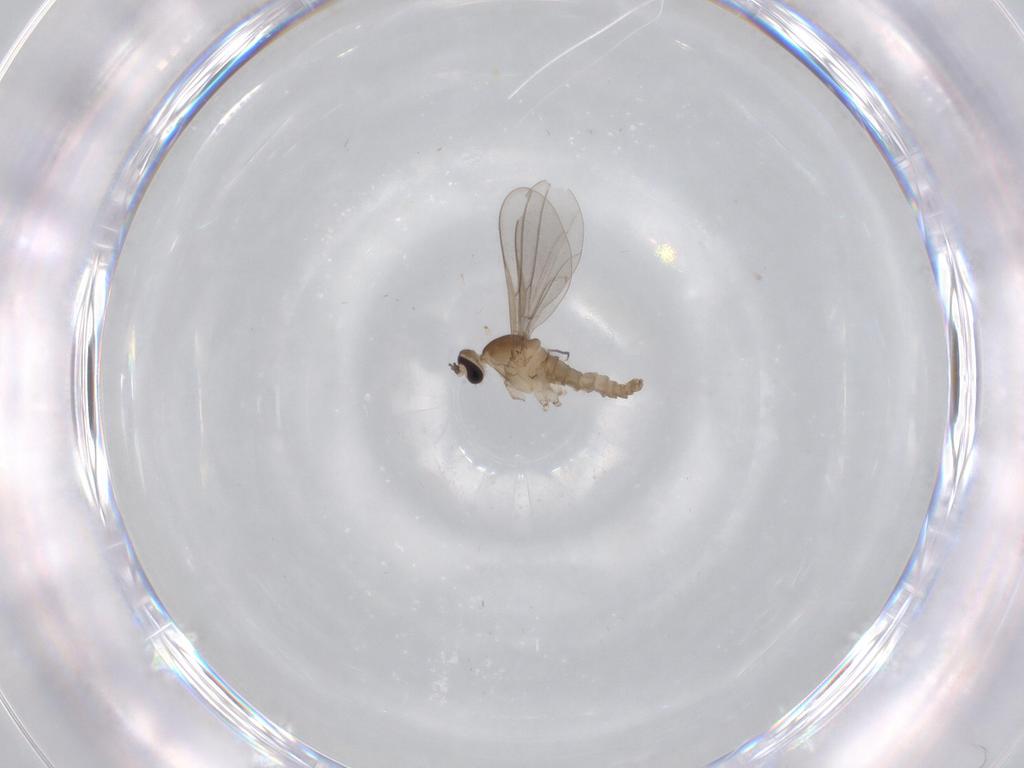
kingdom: Animalia
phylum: Arthropoda
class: Insecta
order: Diptera
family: Cecidomyiidae
